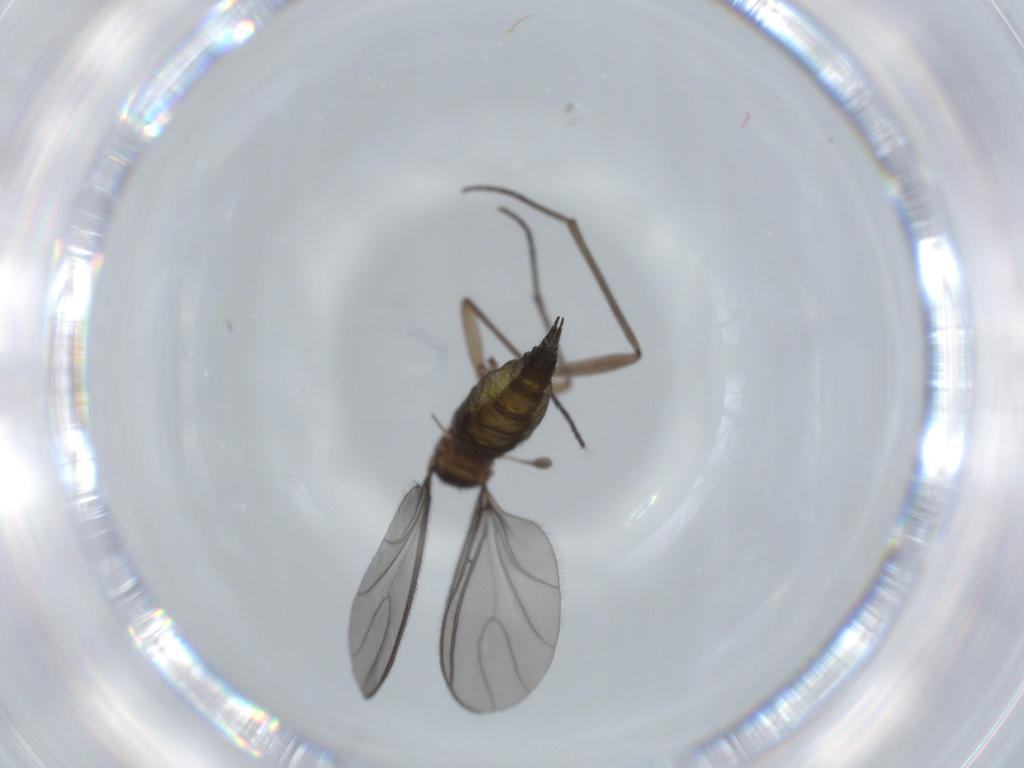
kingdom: Animalia
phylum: Arthropoda
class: Insecta
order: Diptera
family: Sciaridae
